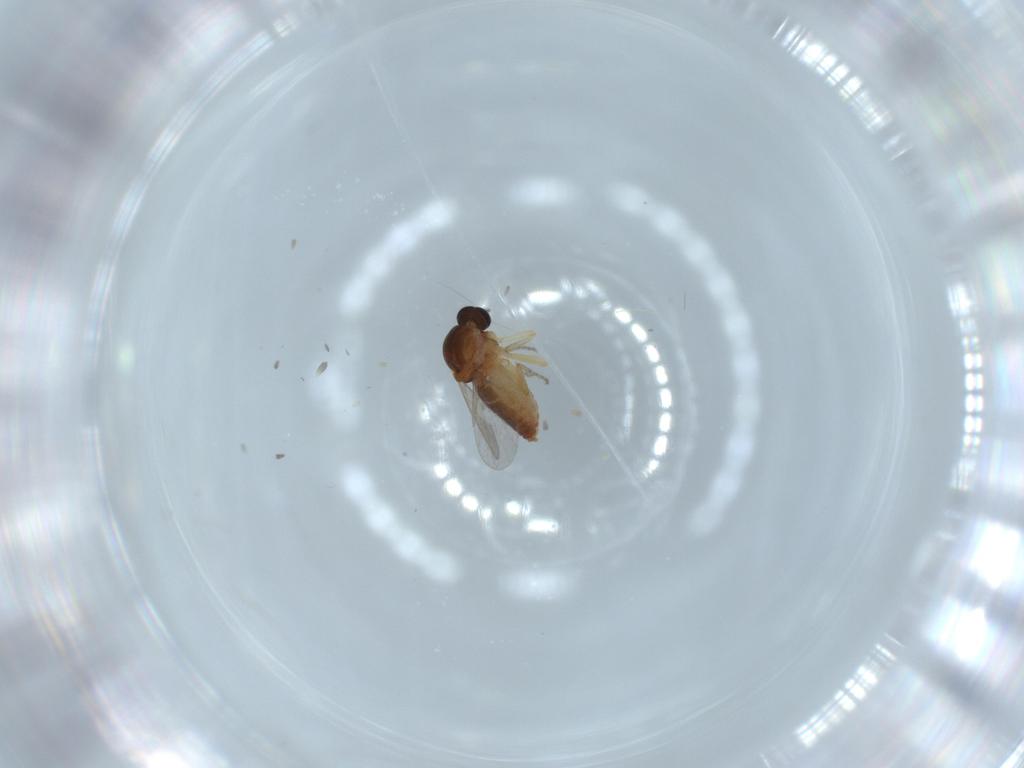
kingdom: Animalia
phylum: Arthropoda
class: Insecta
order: Diptera
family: Ceratopogonidae
